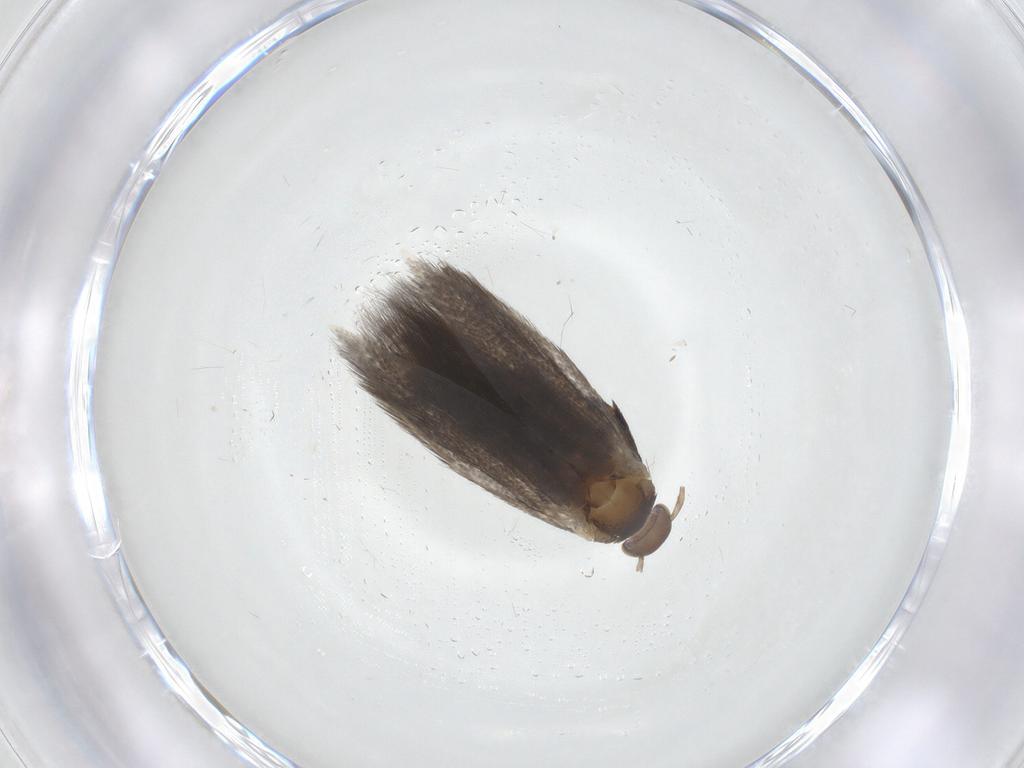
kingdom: Animalia
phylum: Arthropoda
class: Insecta
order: Lepidoptera
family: Elachistidae
